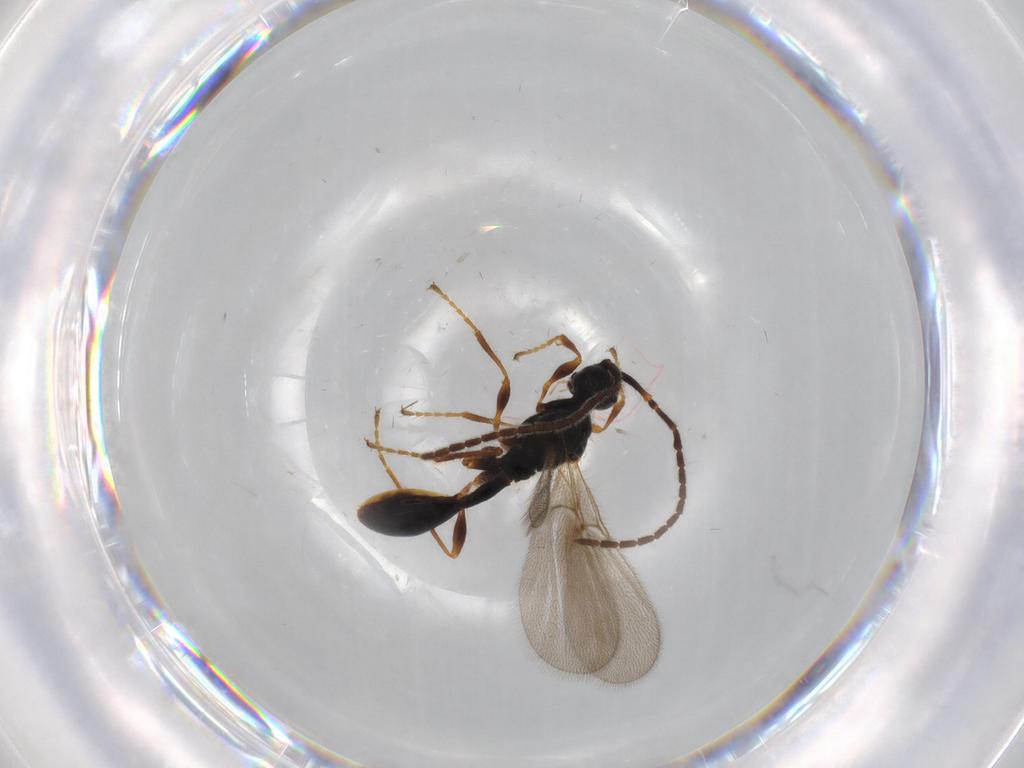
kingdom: Animalia
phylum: Arthropoda
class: Insecta
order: Hymenoptera
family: Diapriidae
